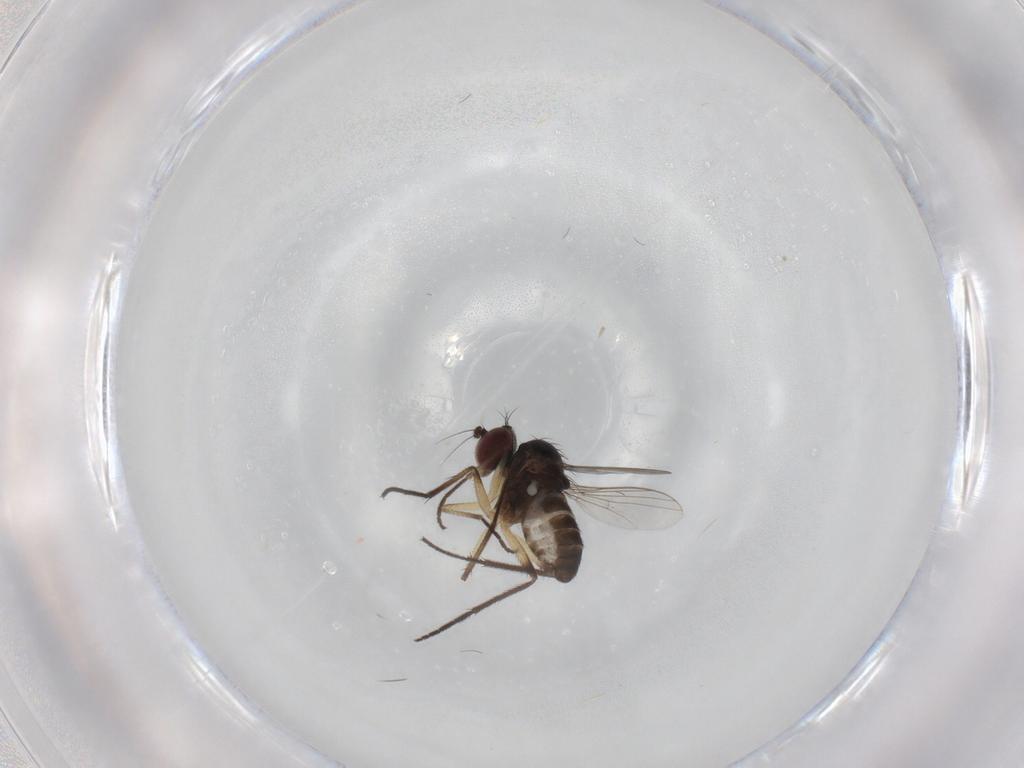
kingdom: Animalia
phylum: Arthropoda
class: Insecta
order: Diptera
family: Dolichopodidae
